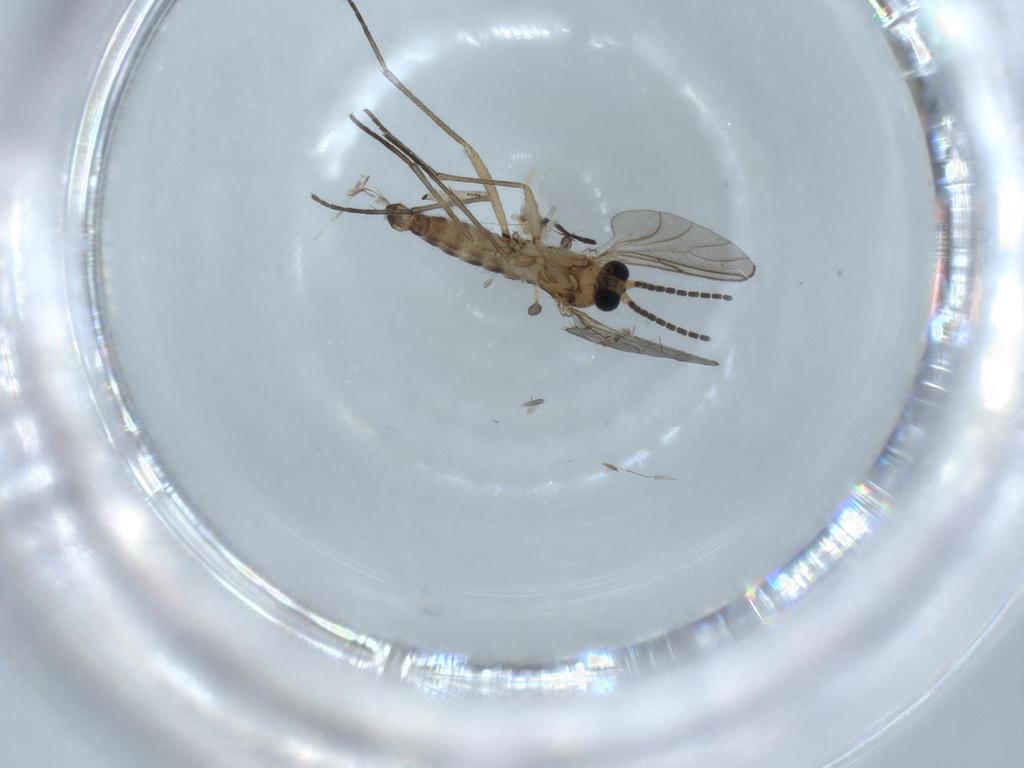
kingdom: Animalia
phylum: Arthropoda
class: Insecta
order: Diptera
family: Sciaridae
